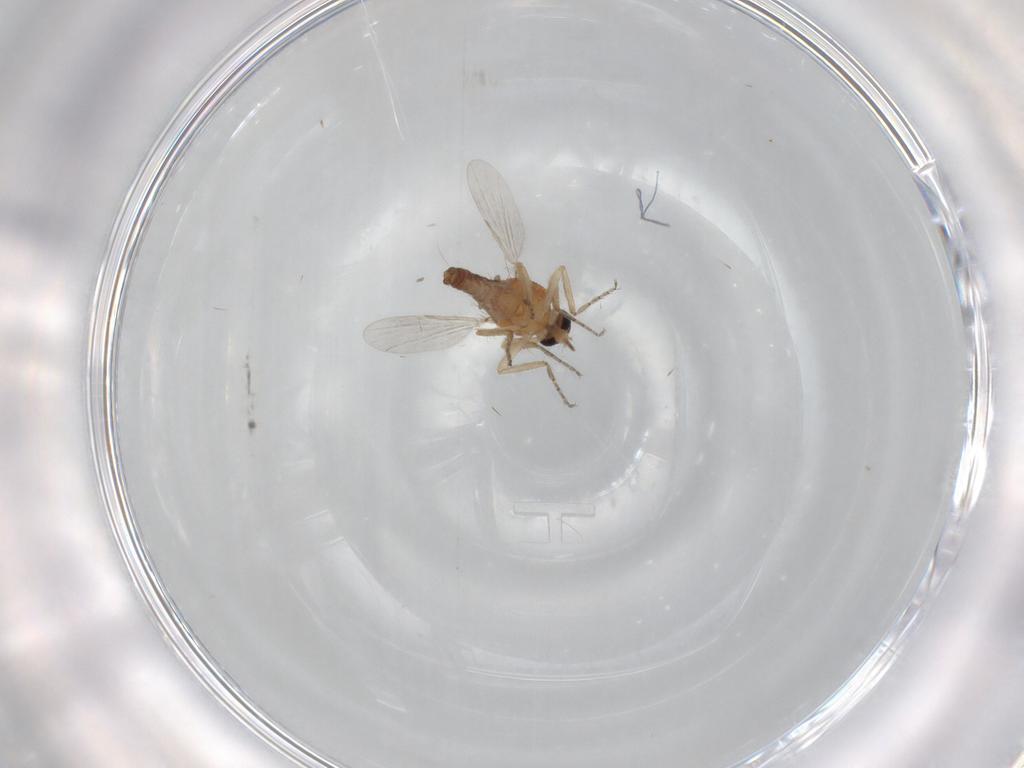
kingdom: Animalia
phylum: Arthropoda
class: Insecta
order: Diptera
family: Ceratopogonidae
